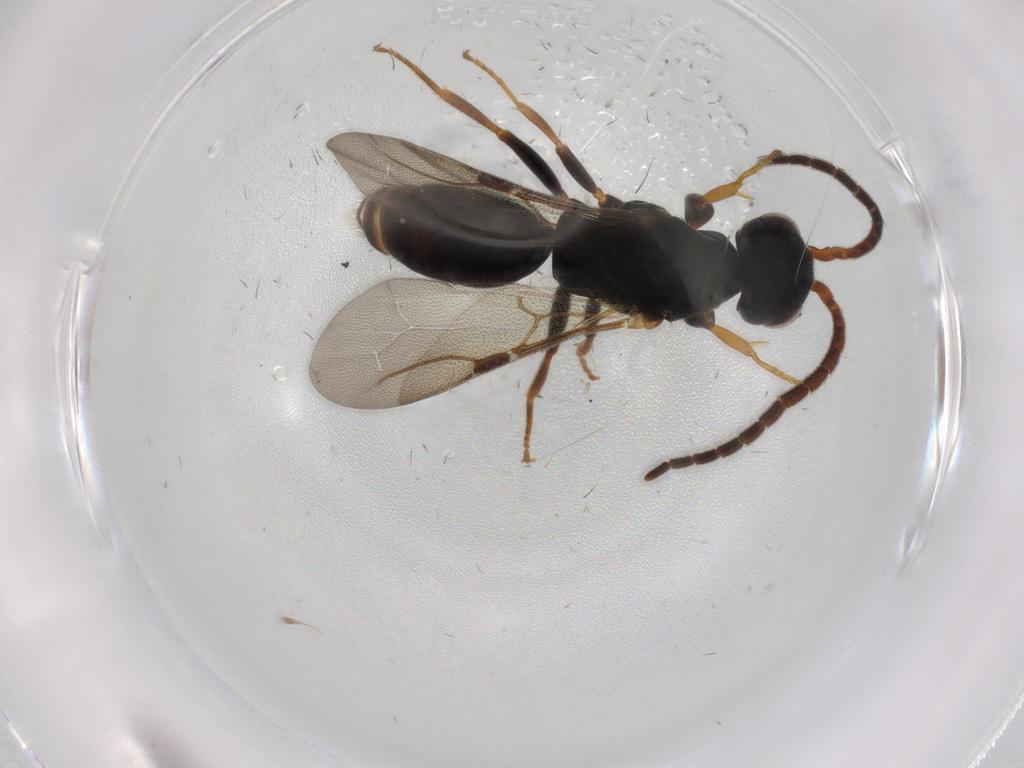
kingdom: Animalia
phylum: Arthropoda
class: Insecta
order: Hymenoptera
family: Bethylidae
